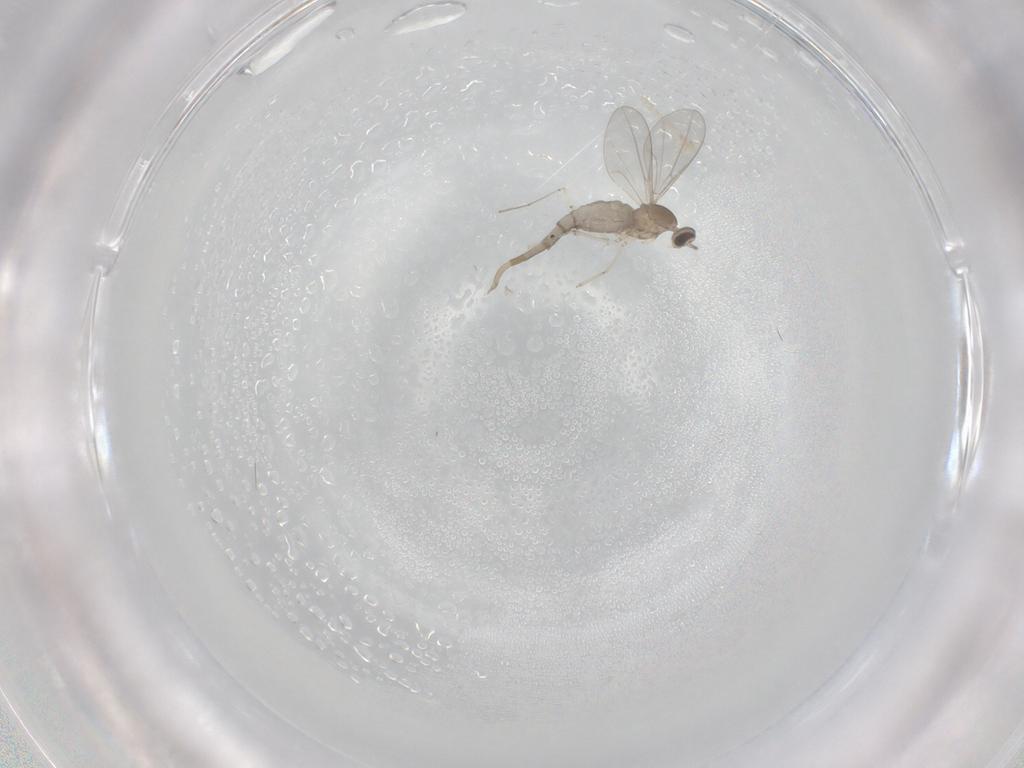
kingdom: Animalia
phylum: Arthropoda
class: Insecta
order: Diptera
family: Cecidomyiidae
